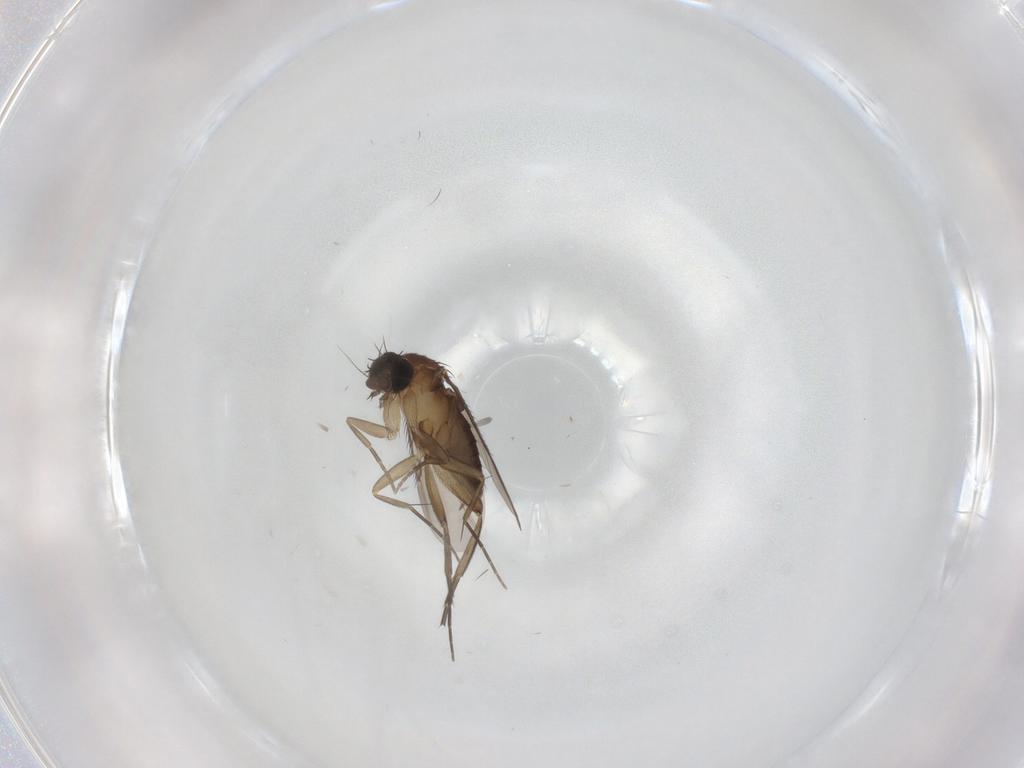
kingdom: Animalia
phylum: Arthropoda
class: Insecta
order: Diptera
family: Phoridae
